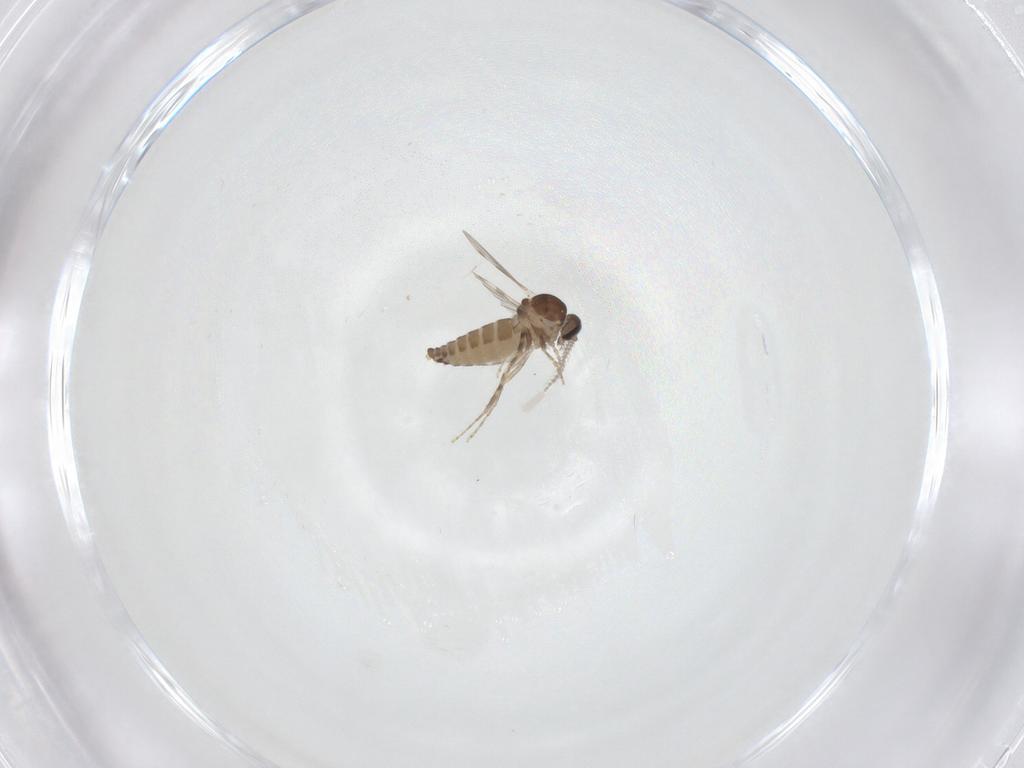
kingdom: Animalia
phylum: Arthropoda
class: Insecta
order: Diptera
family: Ceratopogonidae
